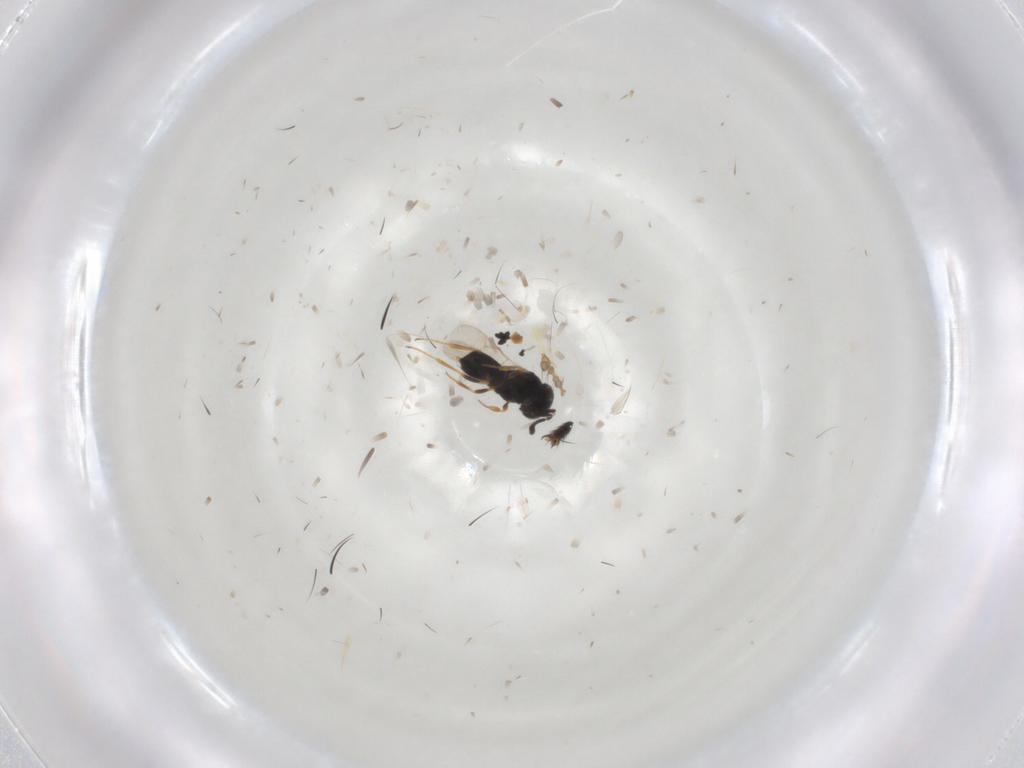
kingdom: Animalia
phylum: Arthropoda
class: Insecta
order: Hymenoptera
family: Scelionidae
